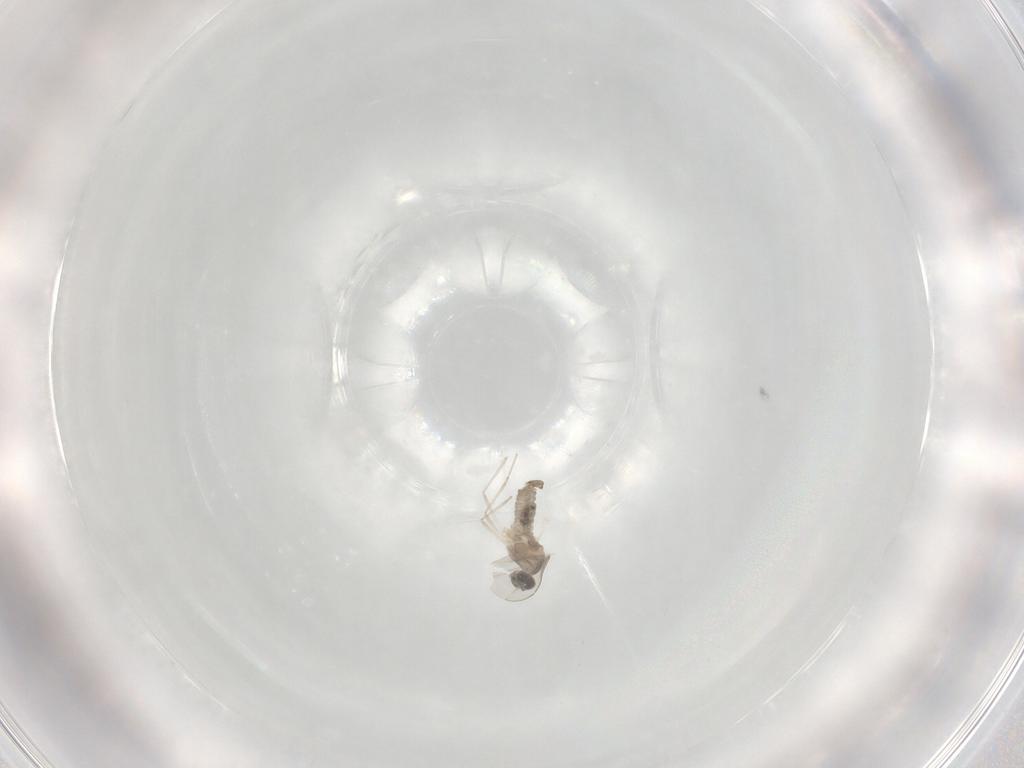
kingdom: Animalia
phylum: Arthropoda
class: Insecta
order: Diptera
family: Cecidomyiidae
